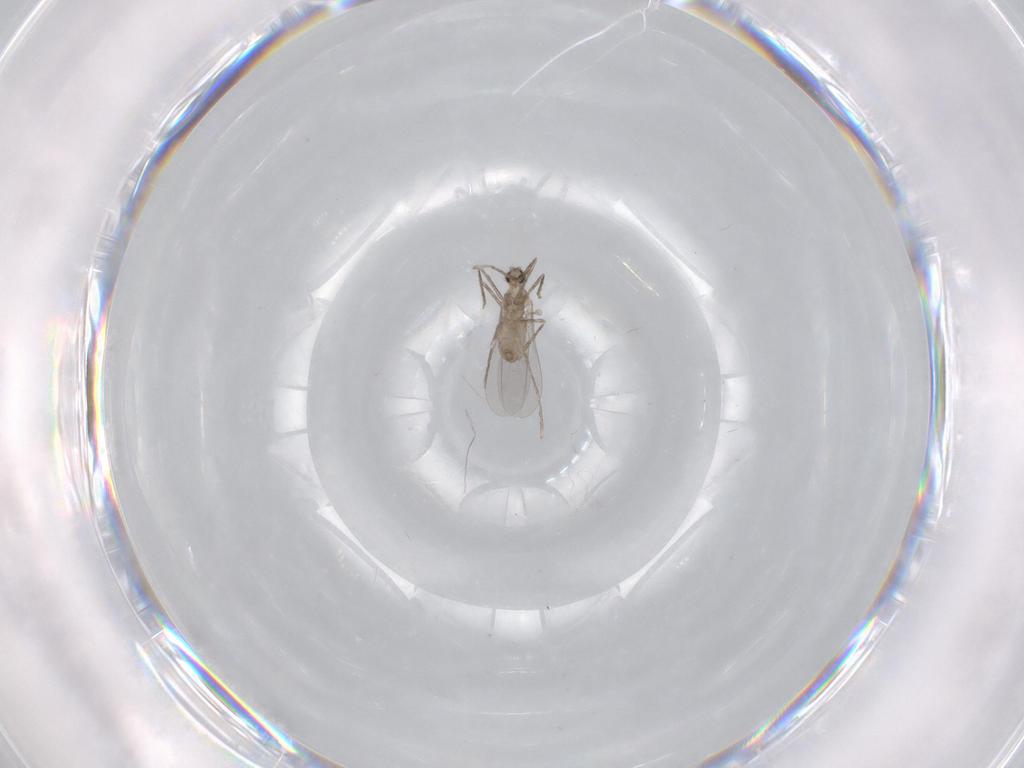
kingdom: Animalia
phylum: Arthropoda
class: Insecta
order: Diptera
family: Cecidomyiidae
